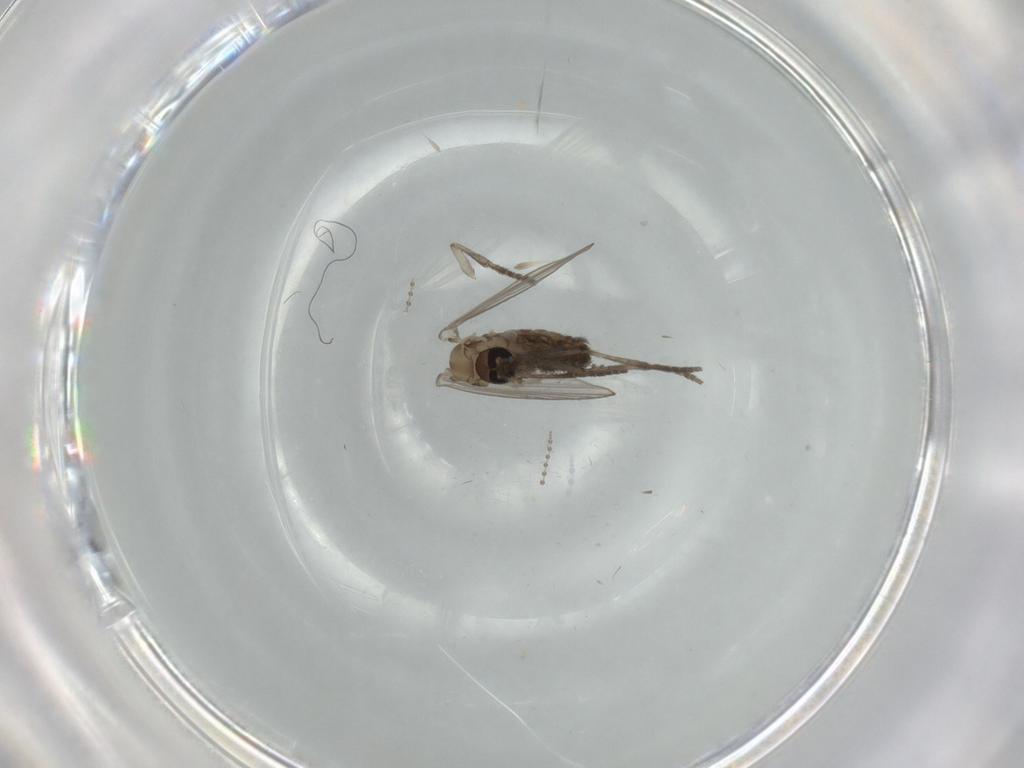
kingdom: Animalia
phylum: Arthropoda
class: Insecta
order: Diptera
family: Psychodidae
